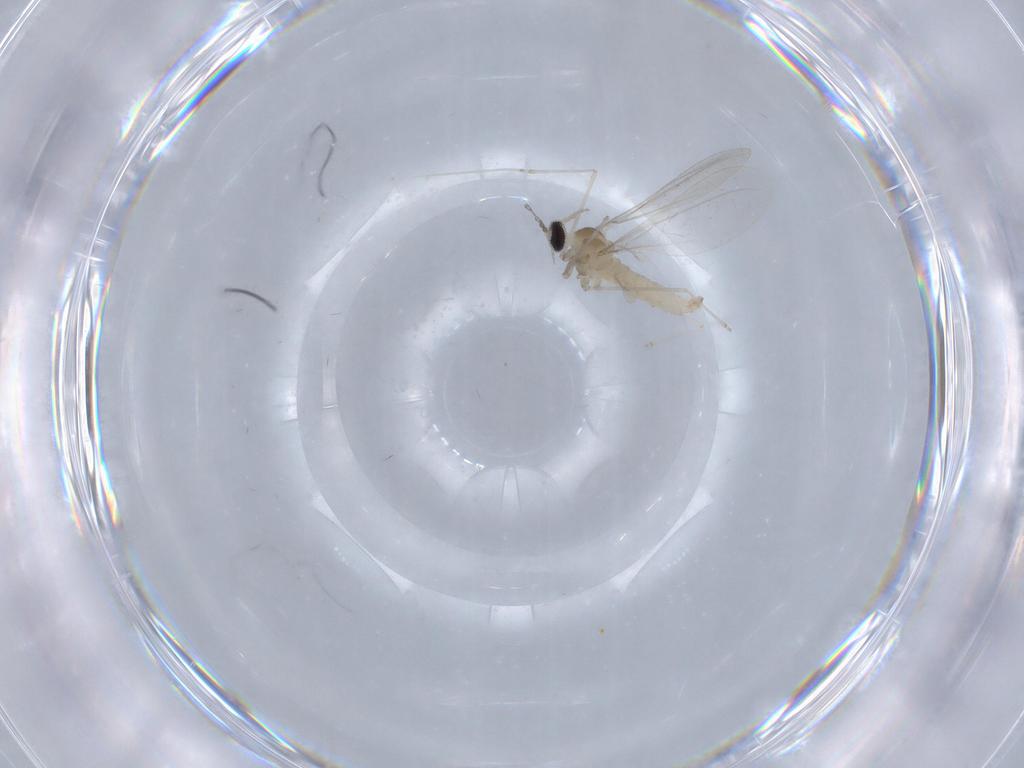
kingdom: Animalia
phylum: Arthropoda
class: Insecta
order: Diptera
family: Cecidomyiidae
